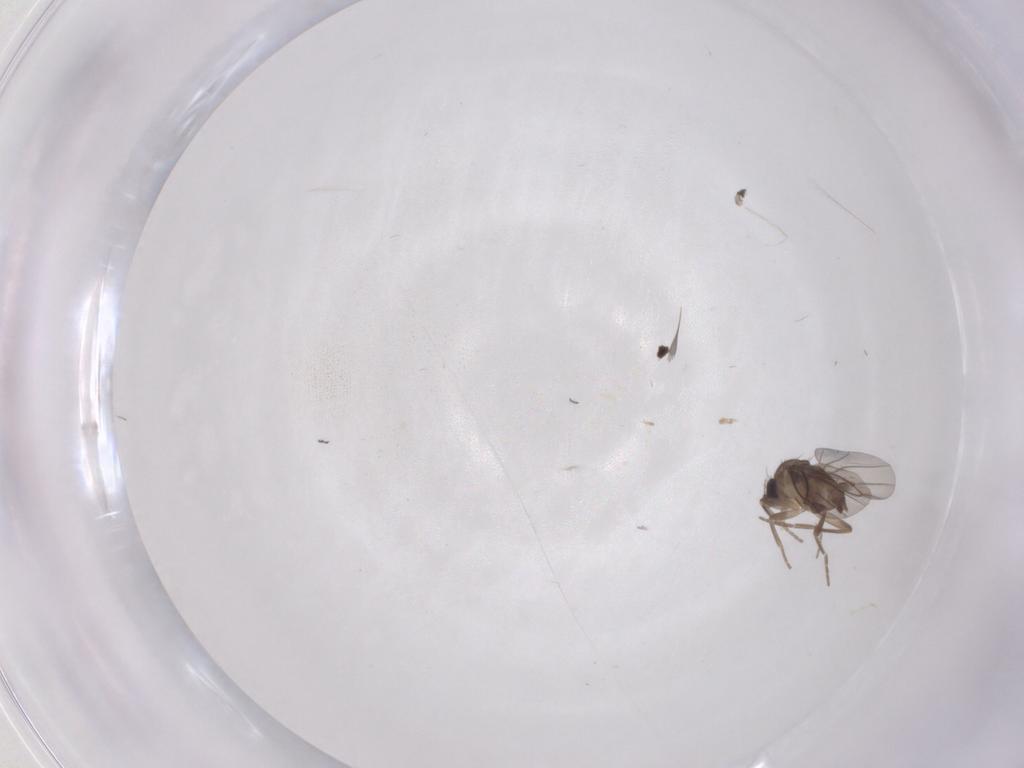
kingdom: Animalia
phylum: Arthropoda
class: Insecta
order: Diptera
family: Phoridae
